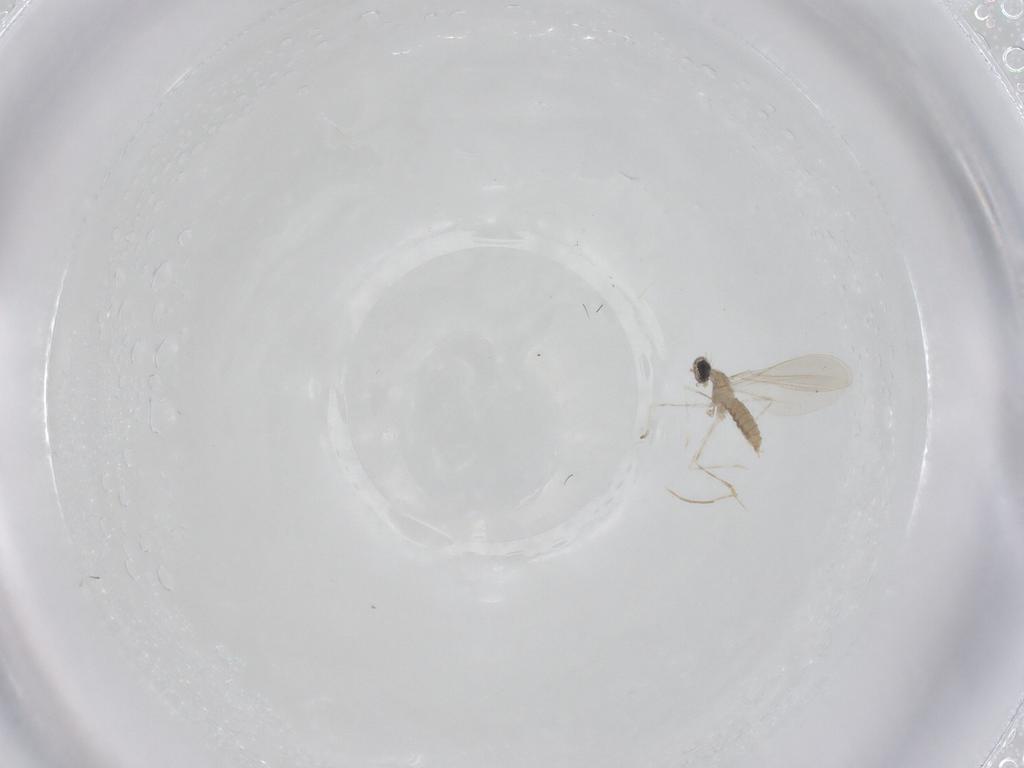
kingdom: Animalia
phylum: Arthropoda
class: Insecta
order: Diptera
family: Cecidomyiidae
